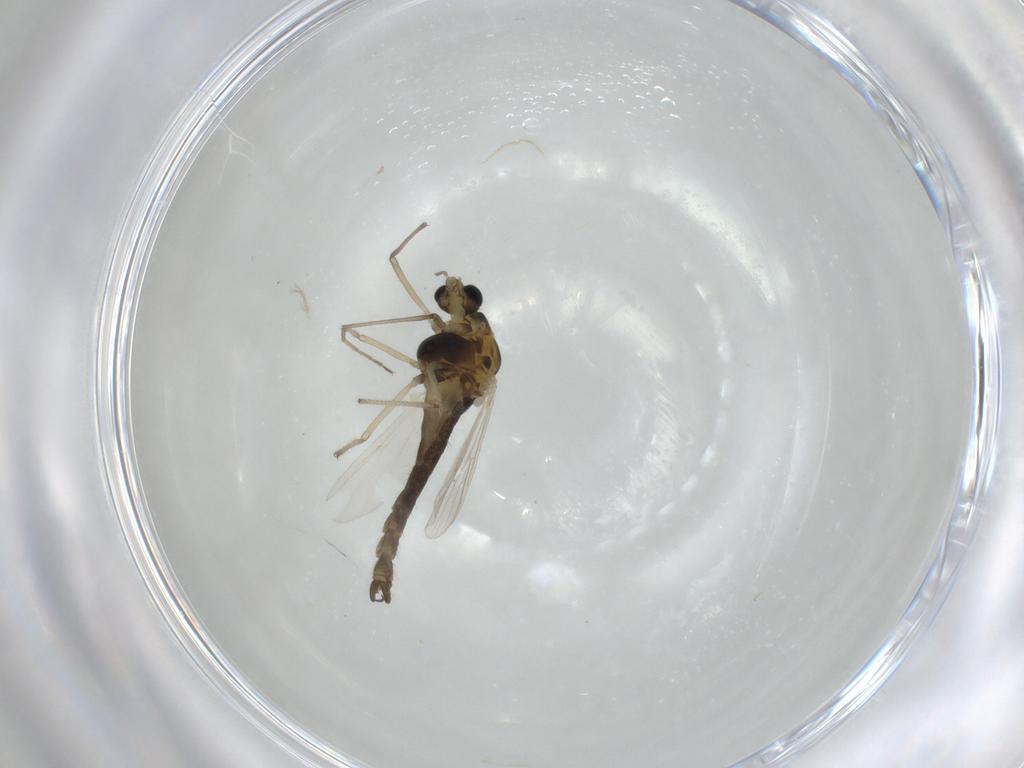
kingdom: Animalia
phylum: Arthropoda
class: Insecta
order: Diptera
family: Chironomidae
